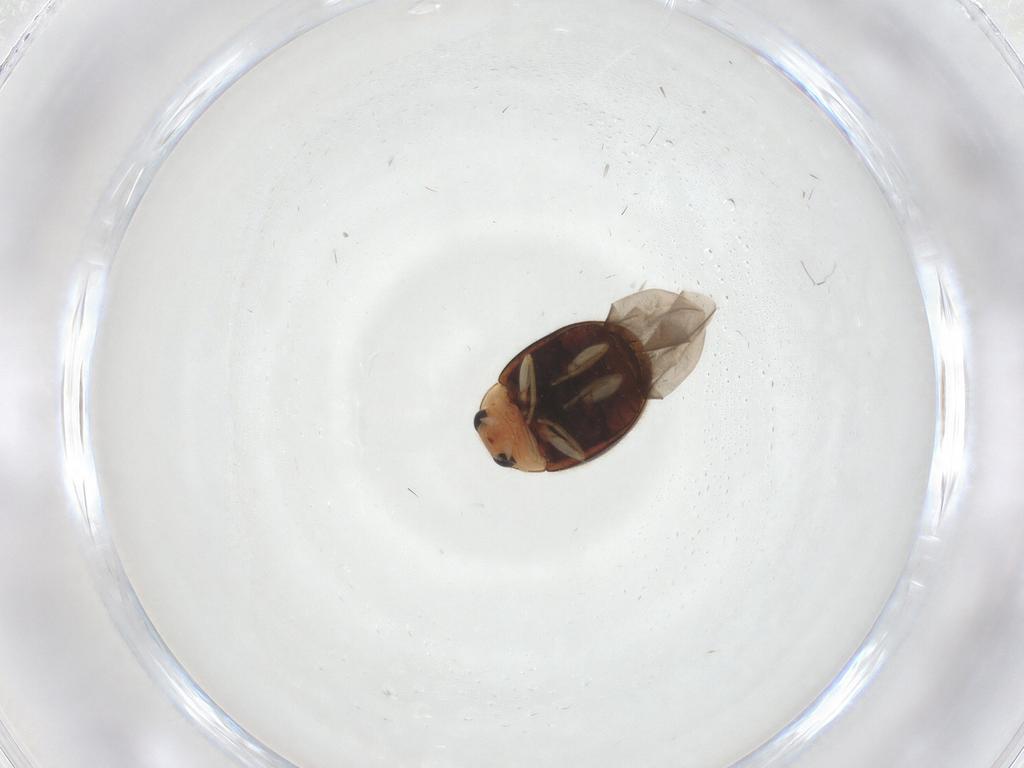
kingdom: Animalia
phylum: Arthropoda
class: Insecta
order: Coleoptera
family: Coccinellidae
